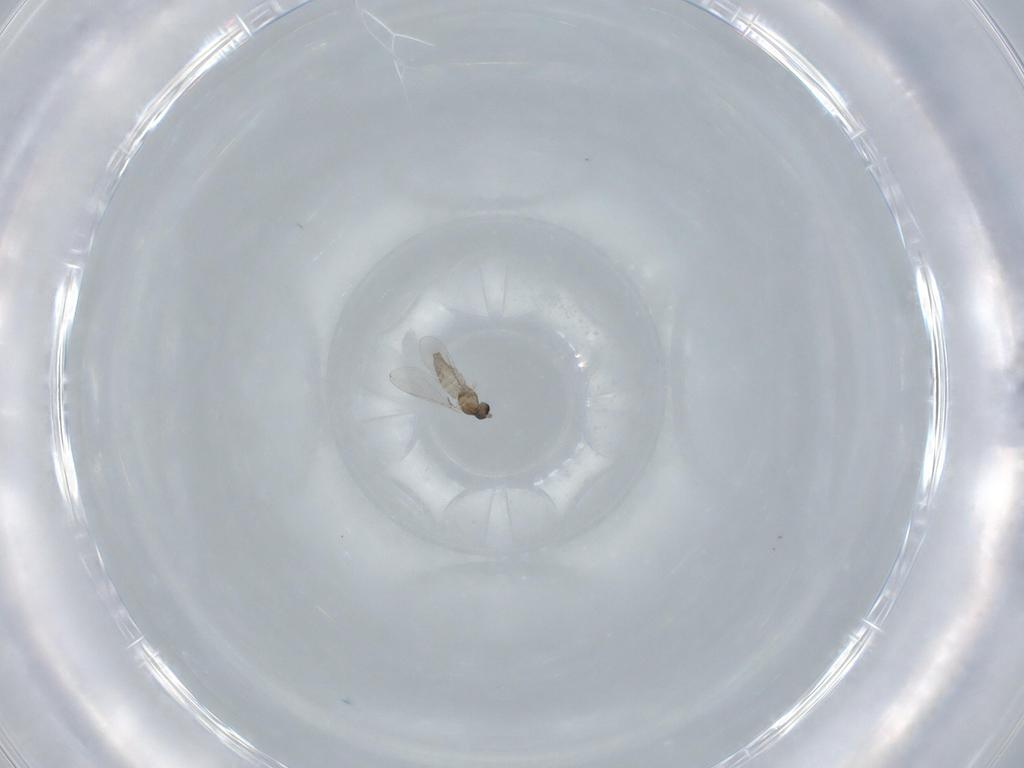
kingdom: Animalia
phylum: Arthropoda
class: Insecta
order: Diptera
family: Cecidomyiidae
